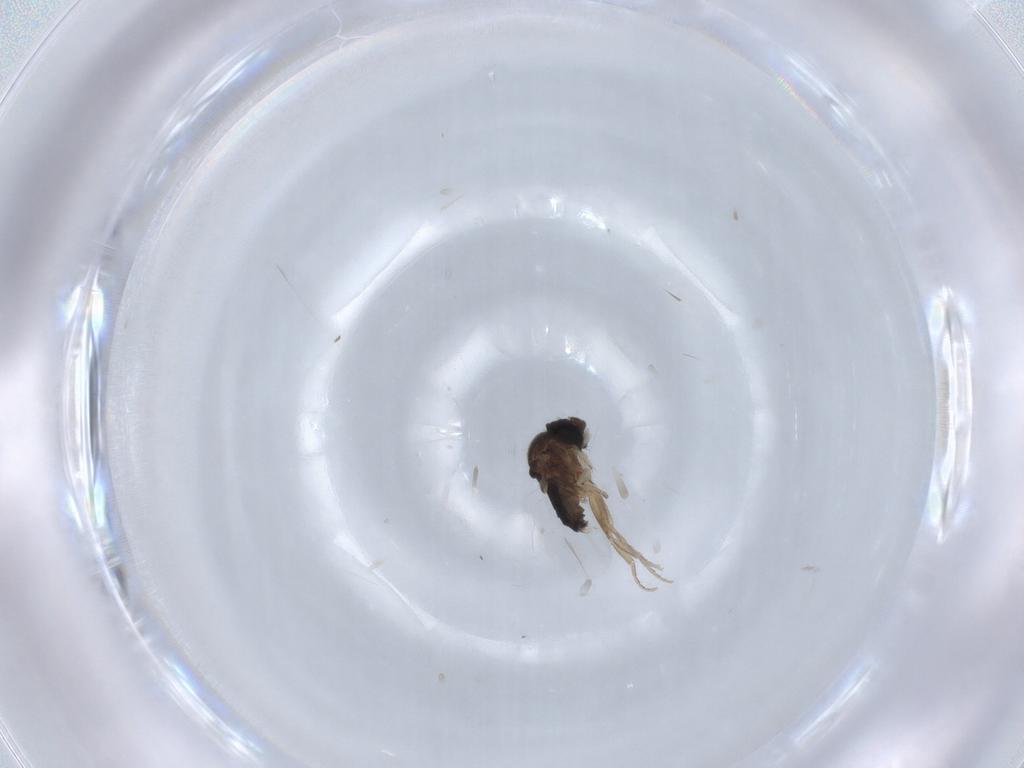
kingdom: Animalia
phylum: Arthropoda
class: Insecta
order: Diptera
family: Phoridae
